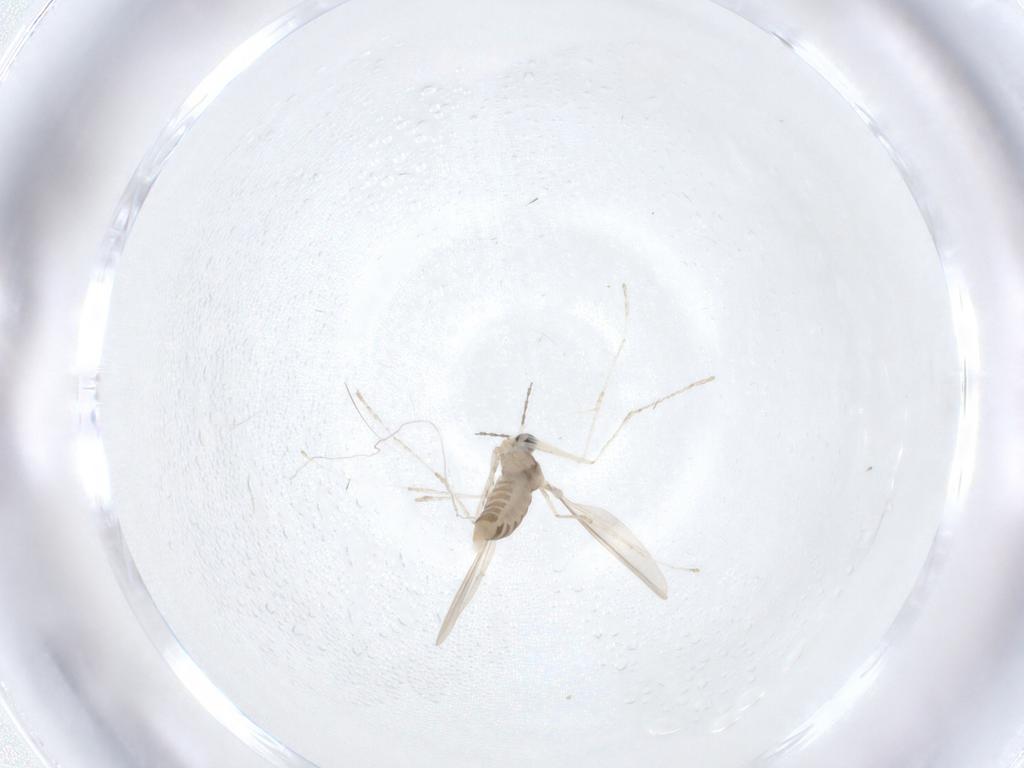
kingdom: Animalia
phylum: Arthropoda
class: Insecta
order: Diptera
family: Cecidomyiidae
